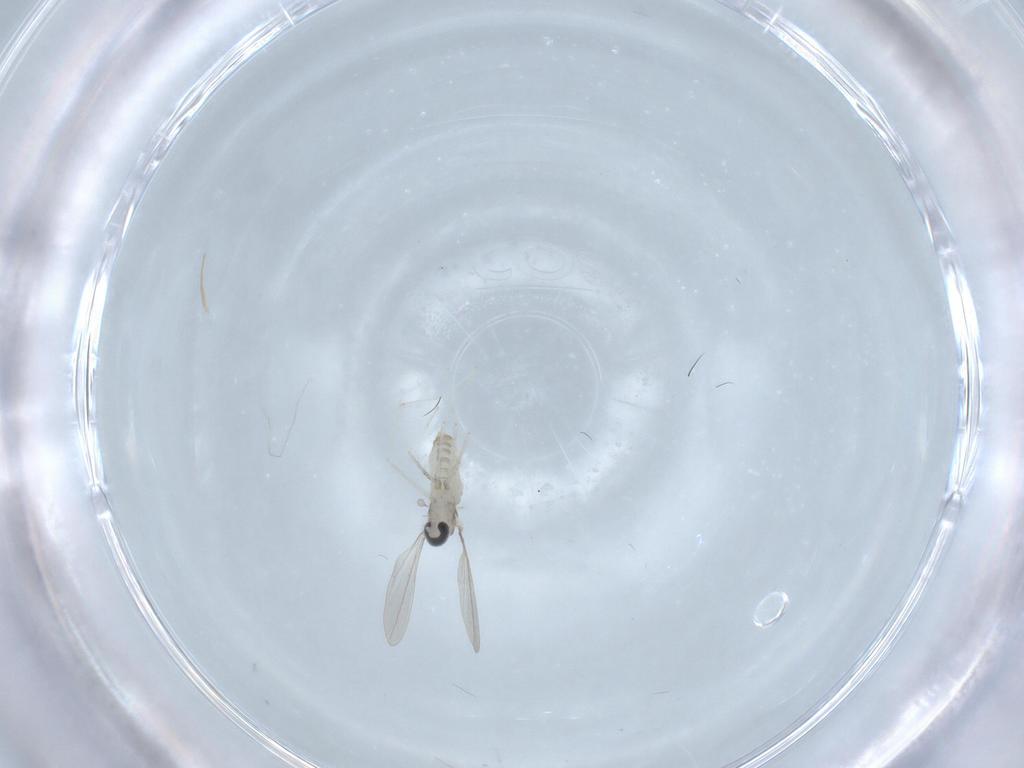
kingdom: Animalia
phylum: Arthropoda
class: Insecta
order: Diptera
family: Cecidomyiidae
